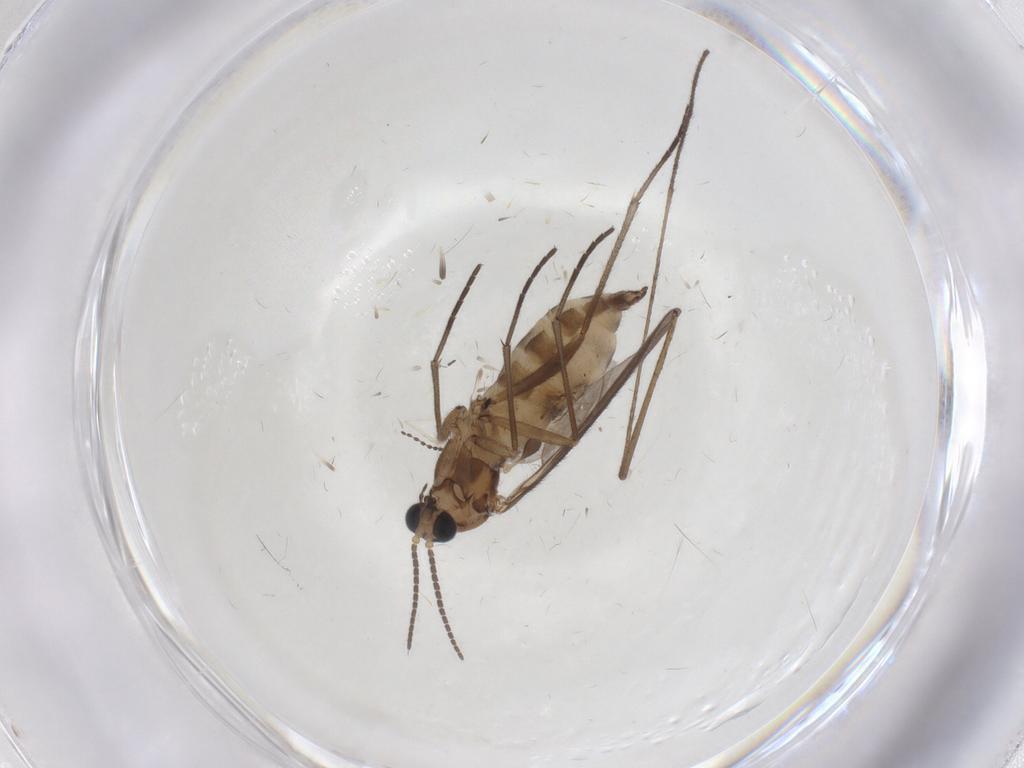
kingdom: Animalia
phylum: Arthropoda
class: Insecta
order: Diptera
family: Sciaridae
